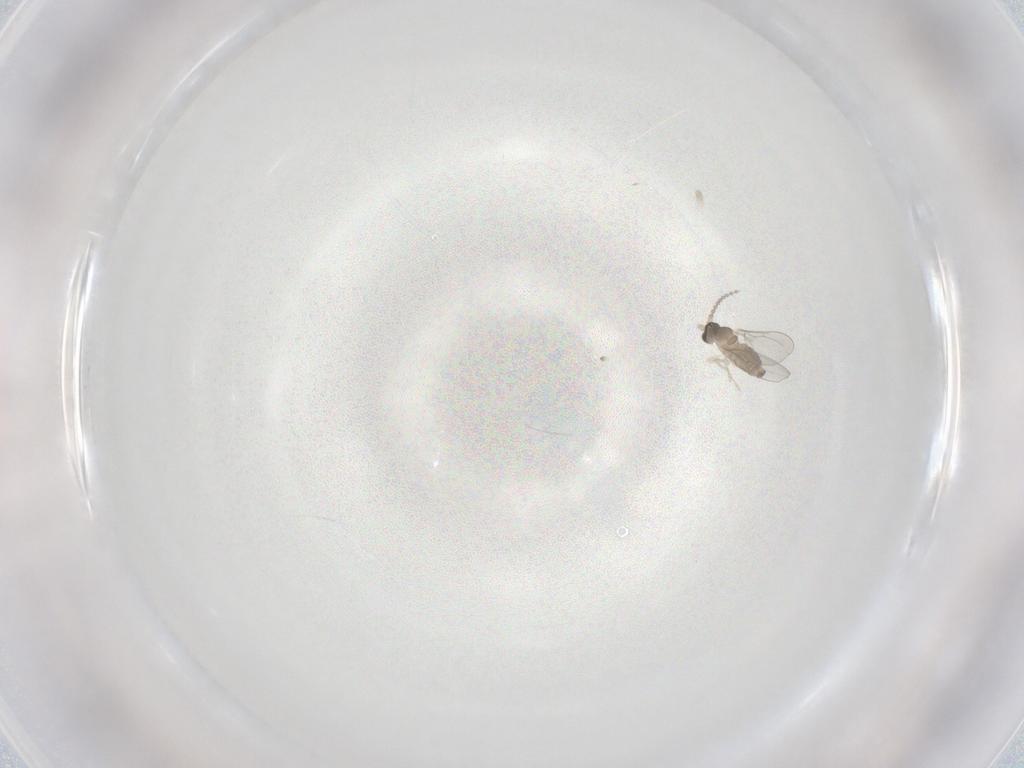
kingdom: Animalia
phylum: Arthropoda
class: Insecta
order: Diptera
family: Cecidomyiidae
